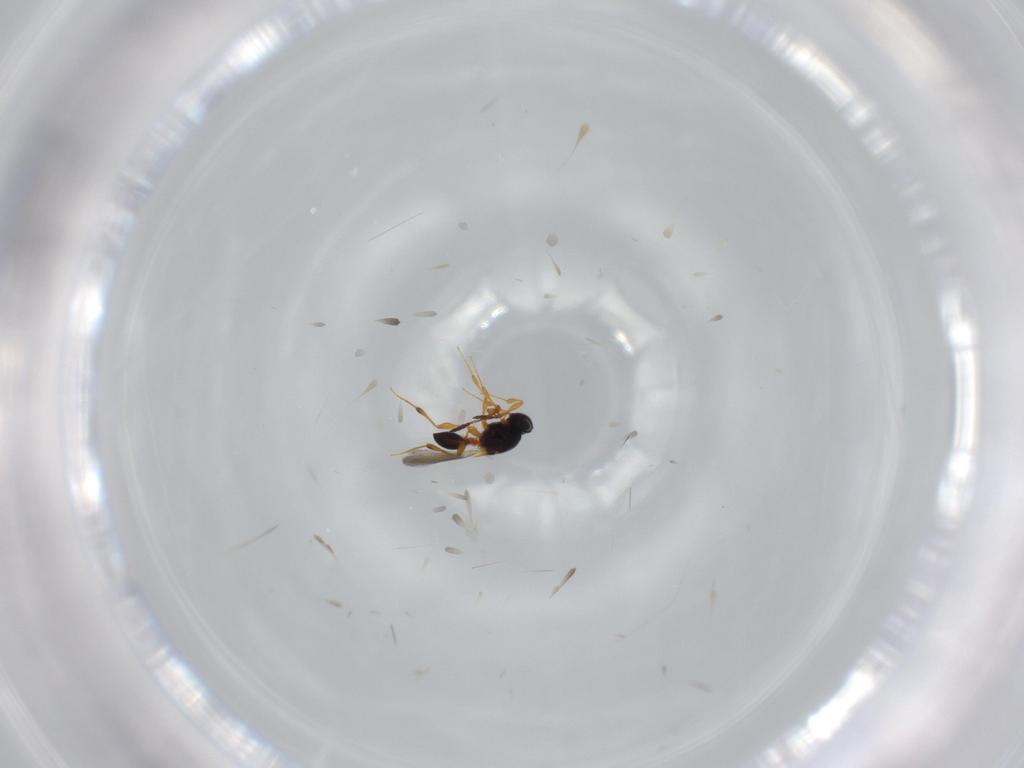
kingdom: Animalia
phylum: Arthropoda
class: Insecta
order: Hymenoptera
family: Platygastridae
